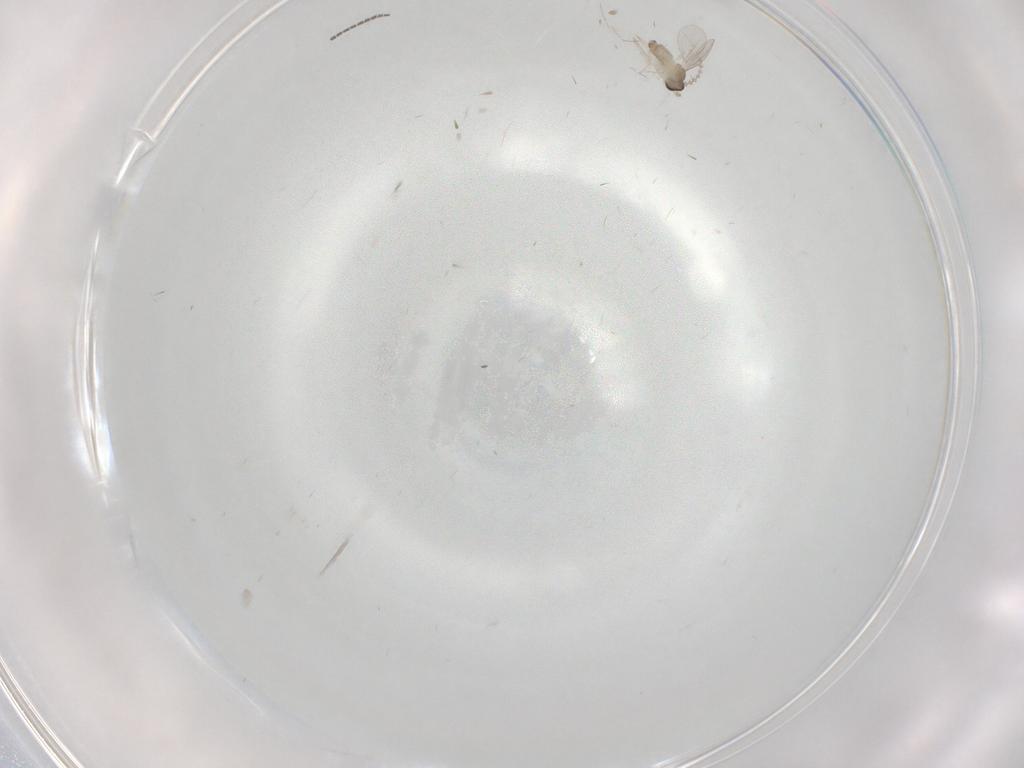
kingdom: Animalia
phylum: Arthropoda
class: Insecta
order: Diptera
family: Cecidomyiidae
